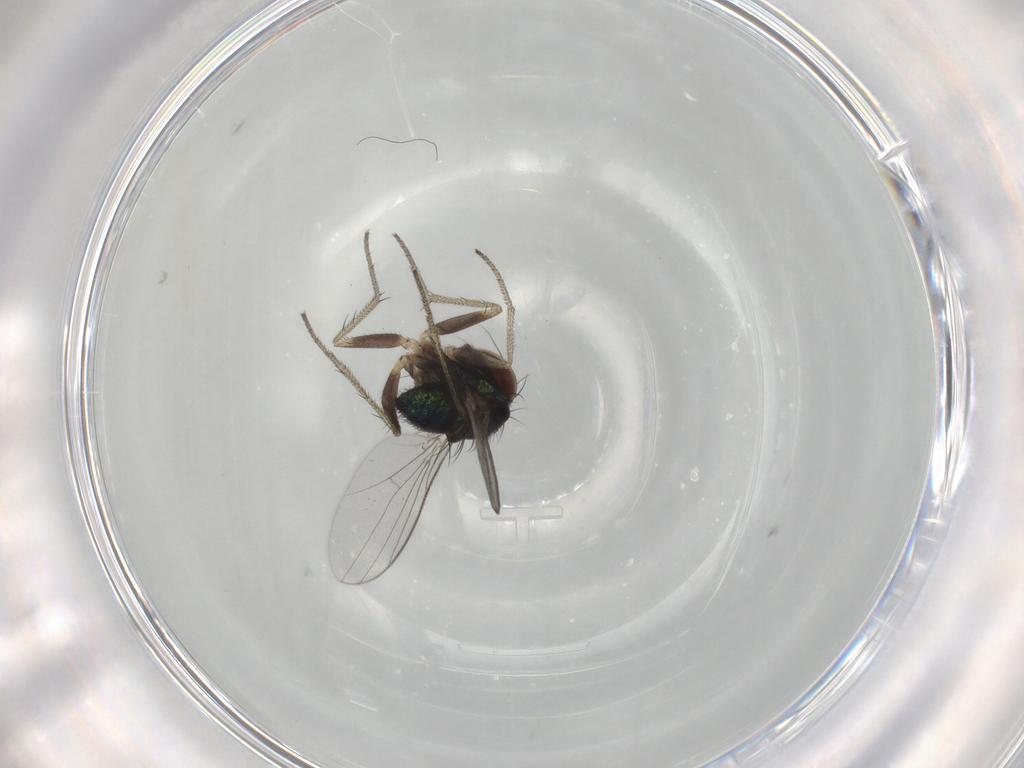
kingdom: Animalia
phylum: Arthropoda
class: Insecta
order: Diptera
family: Dolichopodidae
